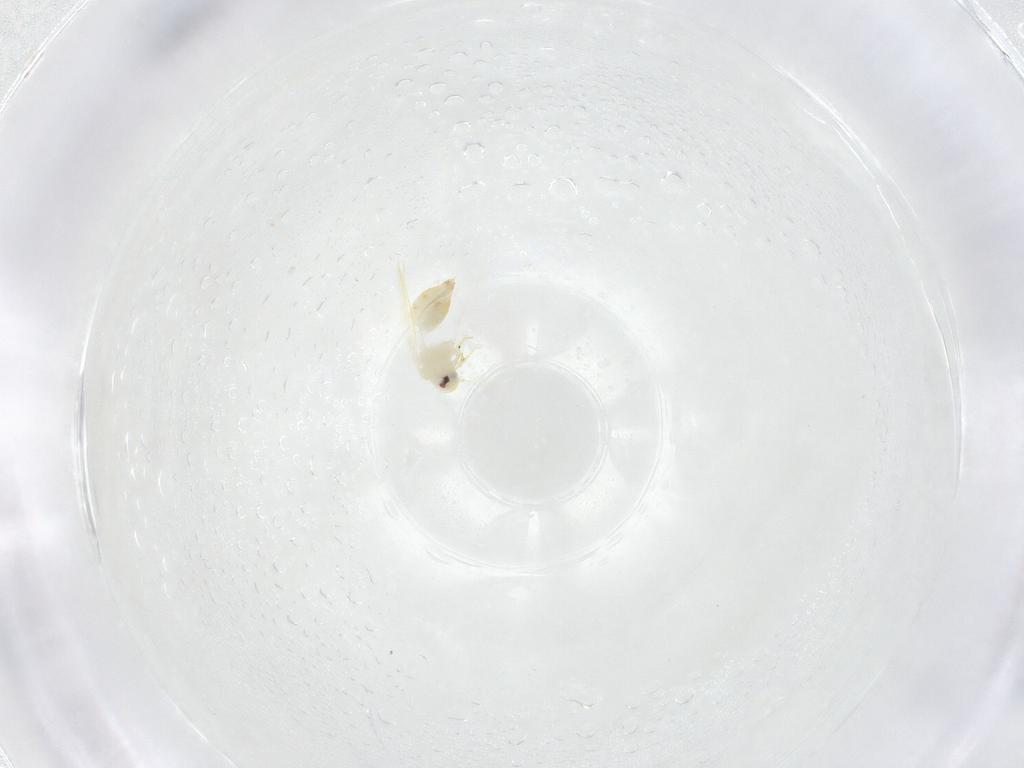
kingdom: Animalia
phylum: Arthropoda
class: Insecta
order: Hemiptera
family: Aleyrodidae
